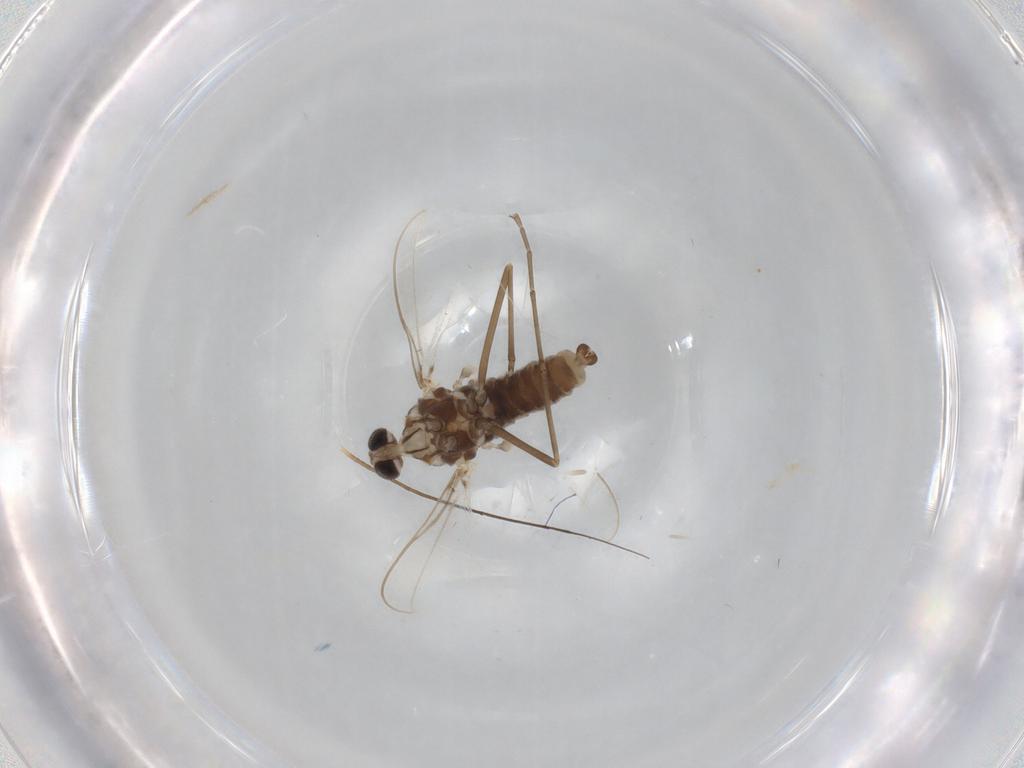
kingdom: Animalia
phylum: Arthropoda
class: Insecta
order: Diptera
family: Cecidomyiidae
